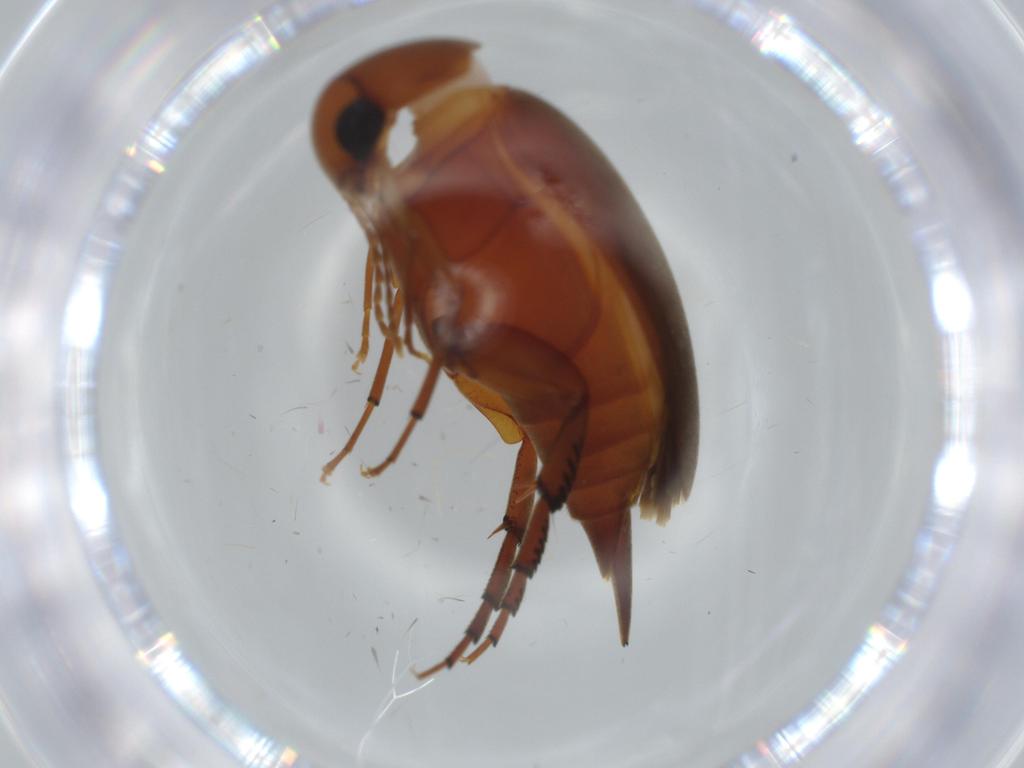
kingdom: Animalia
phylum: Arthropoda
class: Insecta
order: Coleoptera
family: Mordellidae
